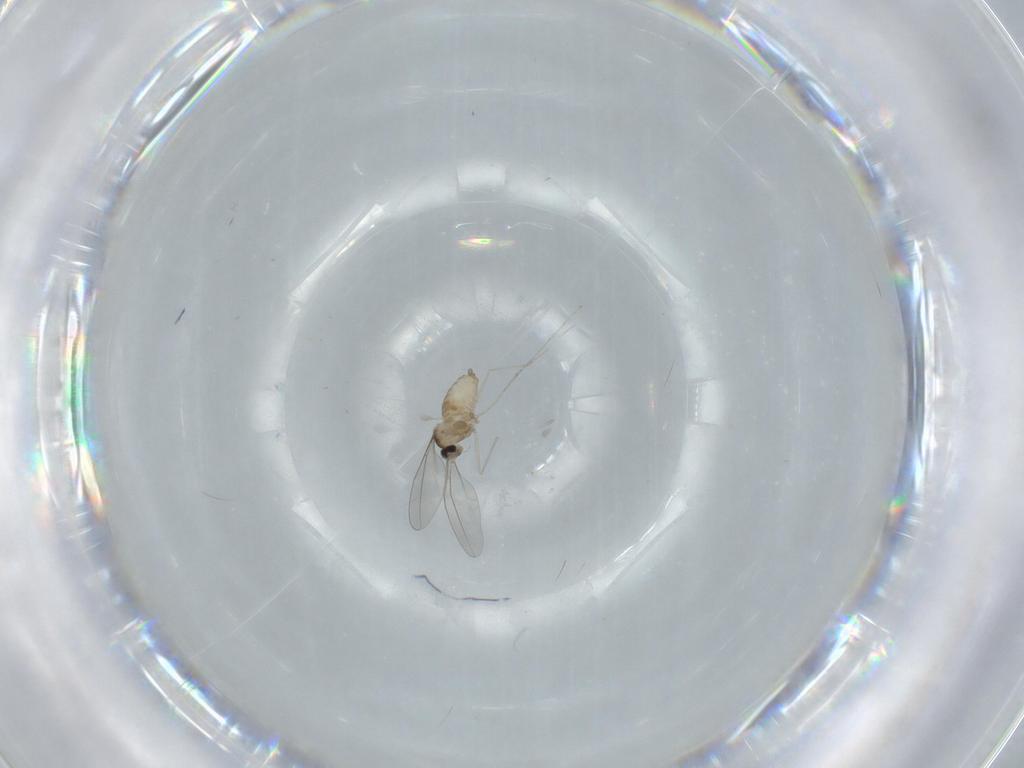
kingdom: Animalia
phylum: Arthropoda
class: Insecta
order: Diptera
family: Cecidomyiidae
